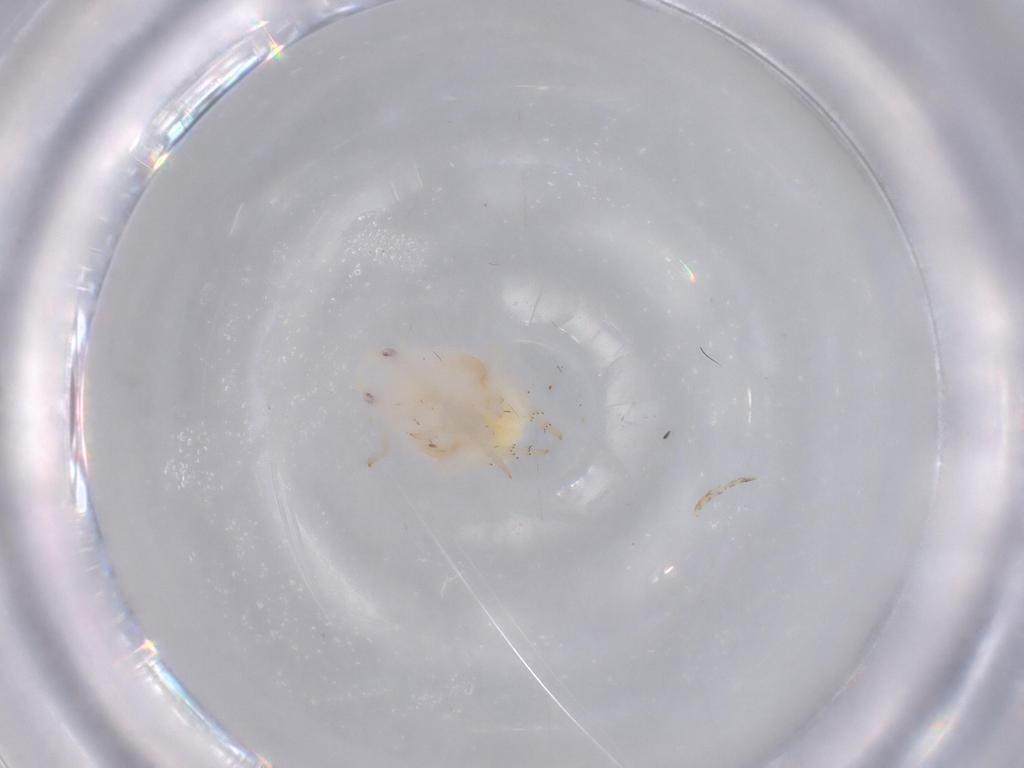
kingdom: Animalia
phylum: Arthropoda
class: Insecta
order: Hemiptera
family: Flatidae
